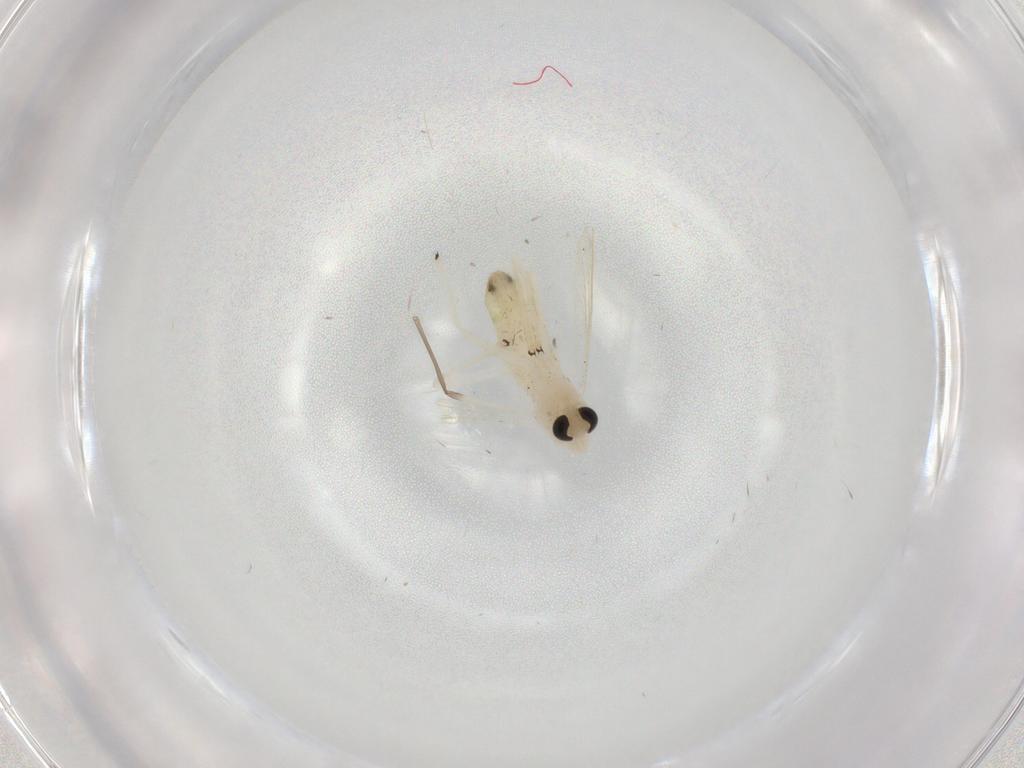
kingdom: Animalia
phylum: Arthropoda
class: Insecta
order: Diptera
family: Chironomidae
